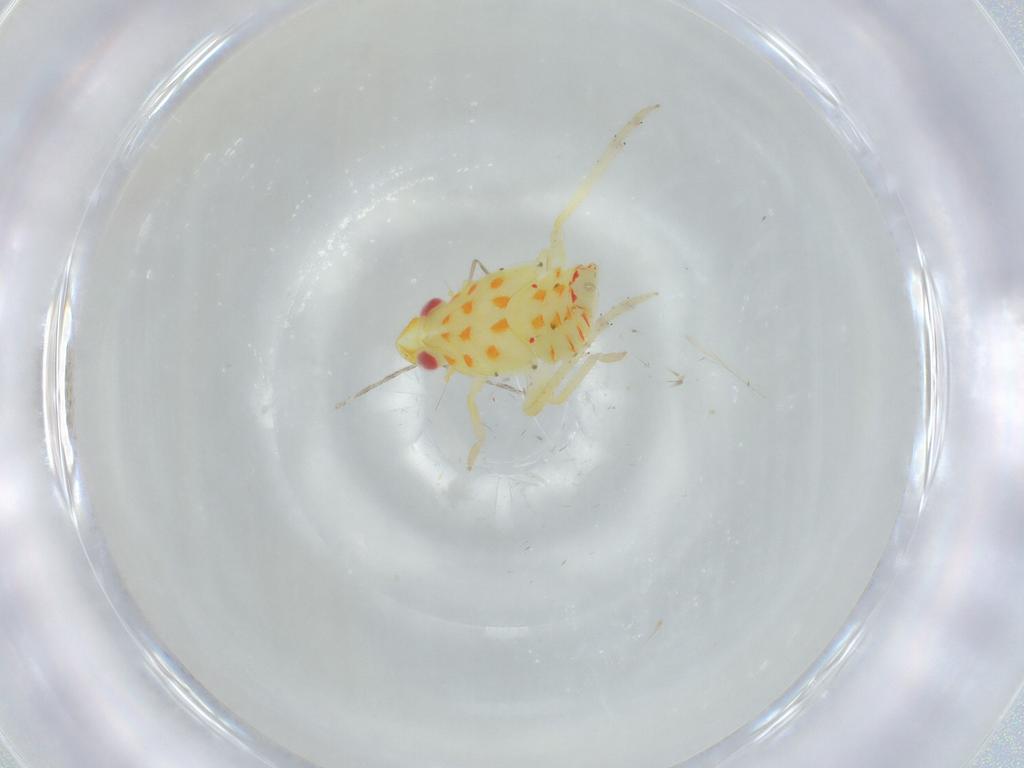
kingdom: Animalia
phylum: Arthropoda
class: Insecta
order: Hemiptera
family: Tropiduchidae
